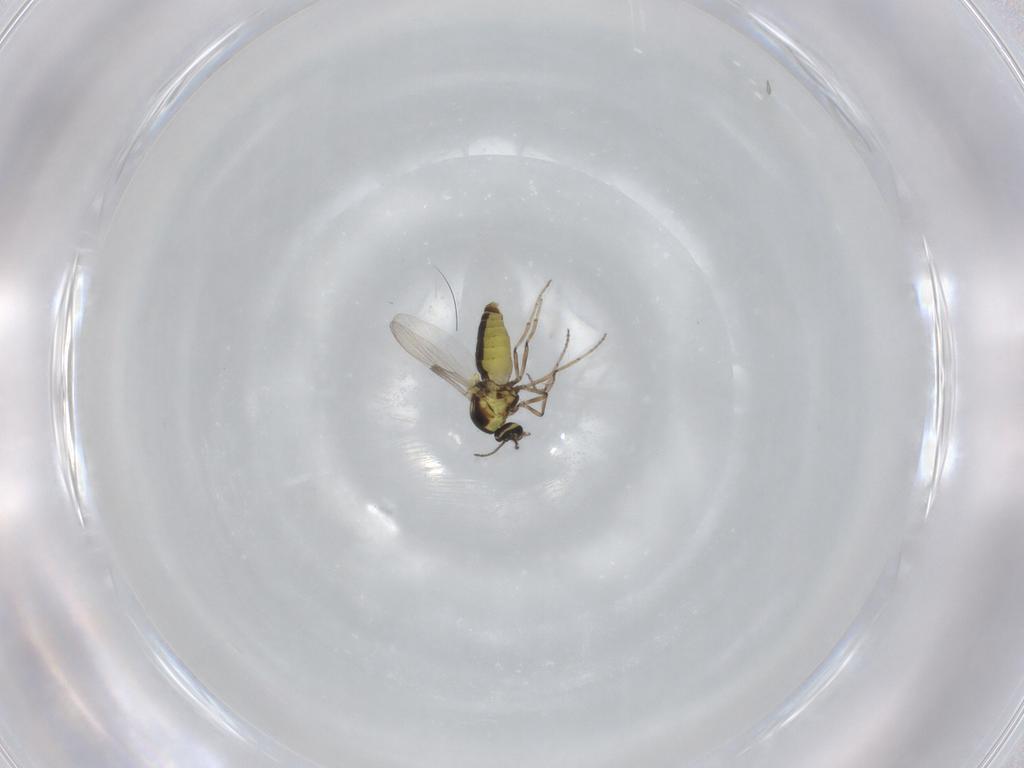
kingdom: Animalia
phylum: Arthropoda
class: Insecta
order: Diptera
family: Ceratopogonidae
